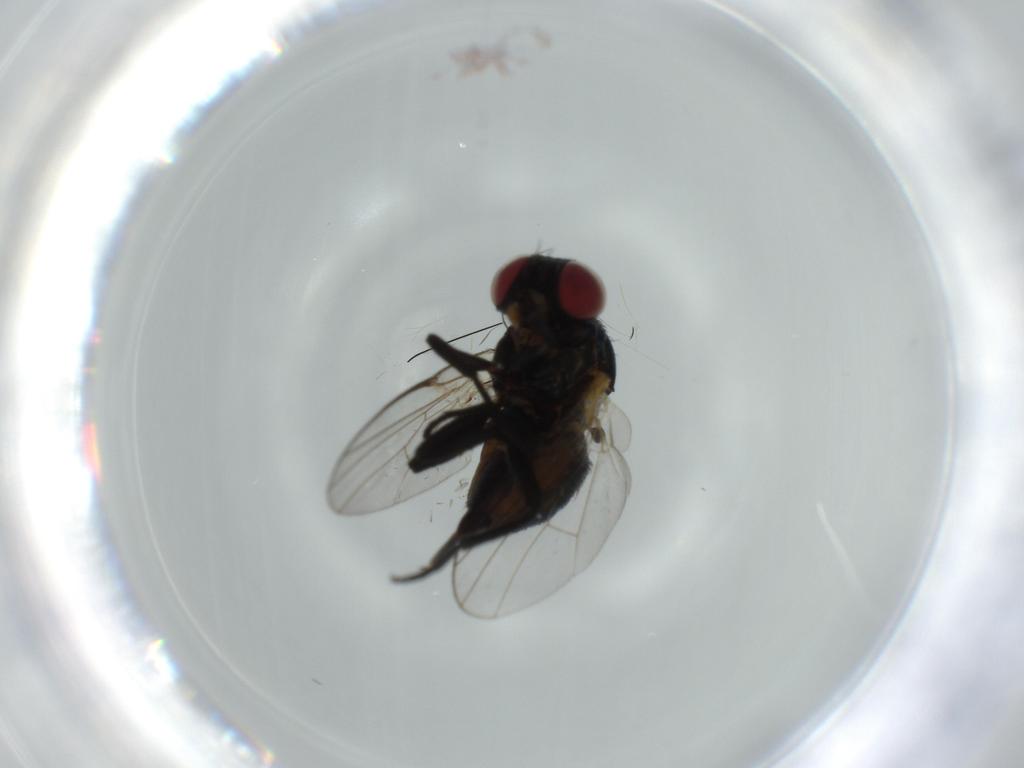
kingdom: Animalia
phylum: Arthropoda
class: Insecta
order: Diptera
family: Agromyzidae
